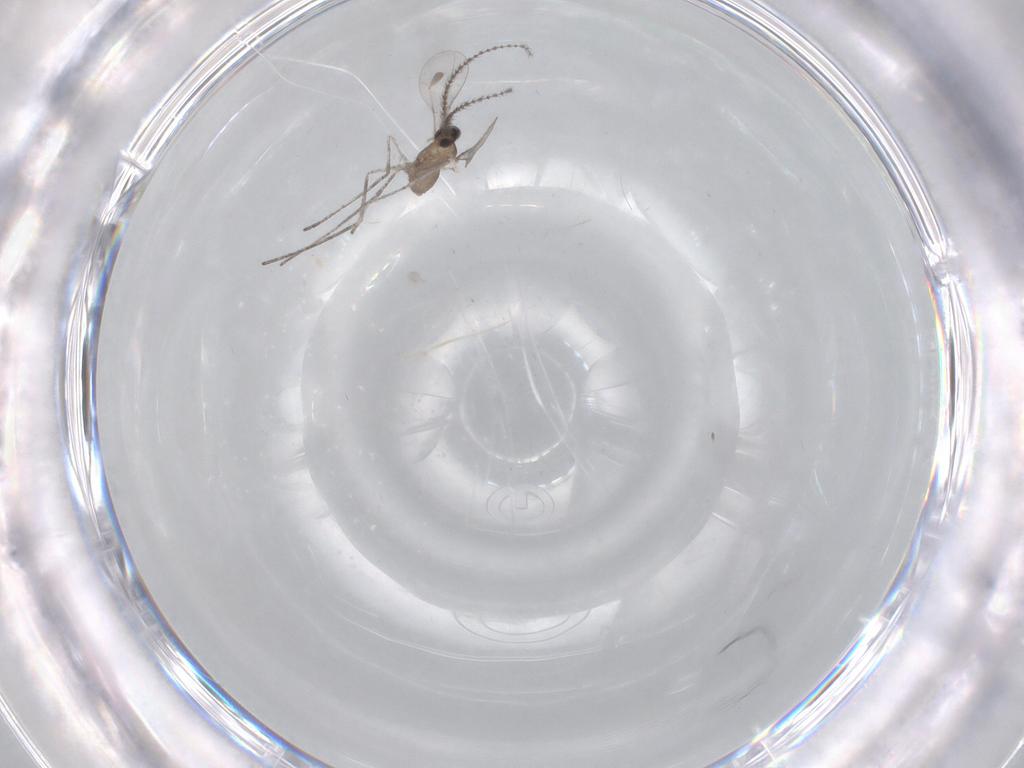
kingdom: Animalia
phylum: Arthropoda
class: Insecta
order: Diptera
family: Cecidomyiidae
